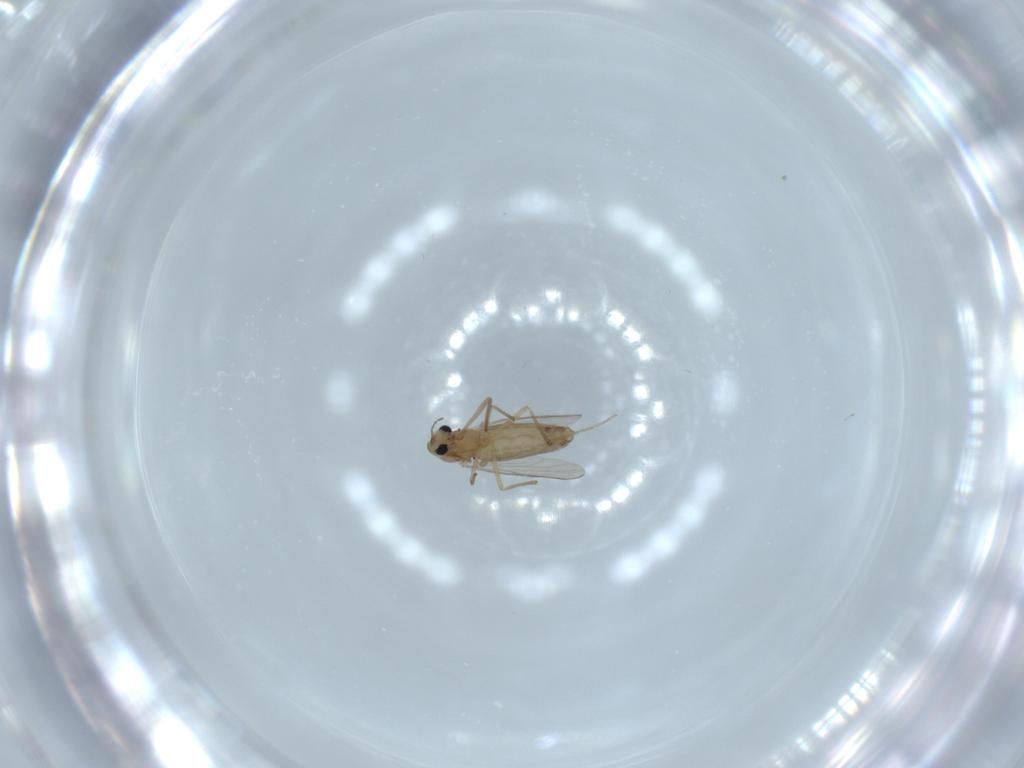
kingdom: Animalia
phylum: Arthropoda
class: Insecta
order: Diptera
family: Chironomidae
